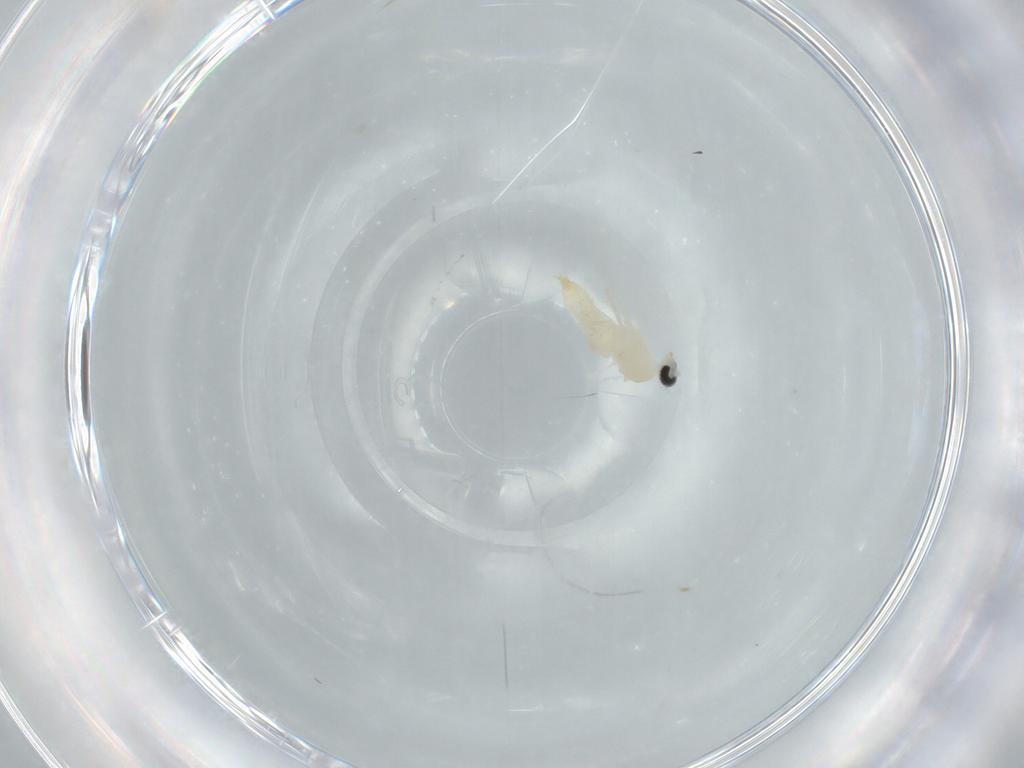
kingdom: Animalia
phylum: Arthropoda
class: Insecta
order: Diptera
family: Cecidomyiidae
